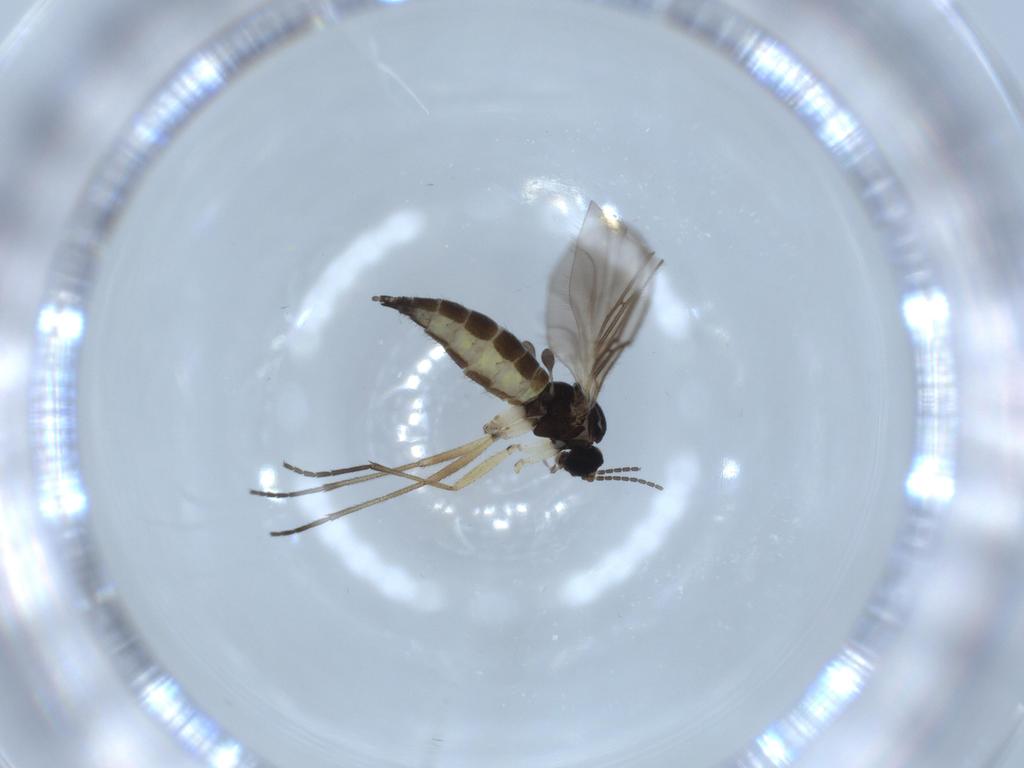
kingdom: Animalia
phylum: Arthropoda
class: Insecta
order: Diptera
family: Sciaridae
